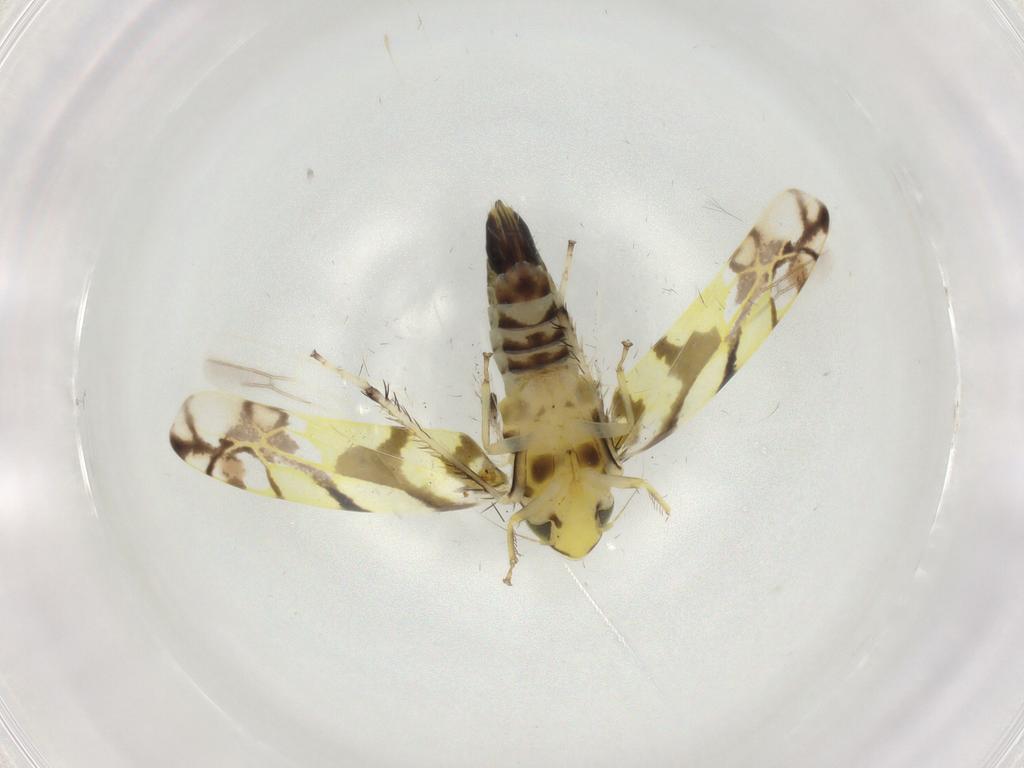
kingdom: Animalia
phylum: Arthropoda
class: Insecta
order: Hemiptera
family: Cicadellidae
